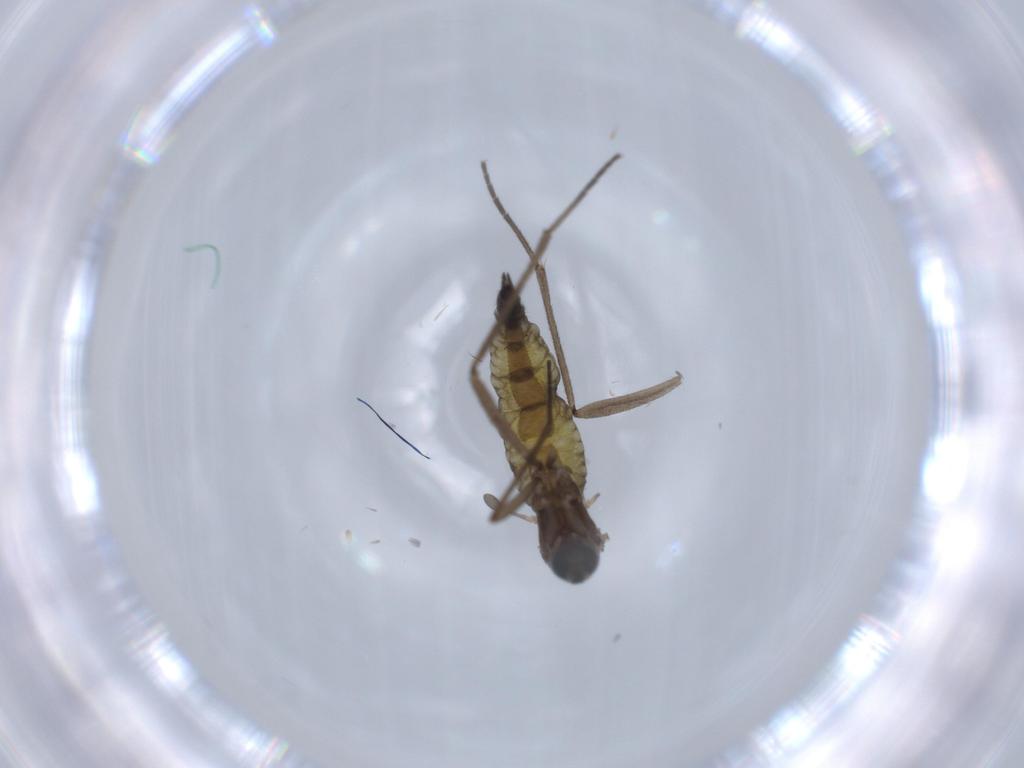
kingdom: Animalia
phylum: Arthropoda
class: Insecta
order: Diptera
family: Sciaridae
